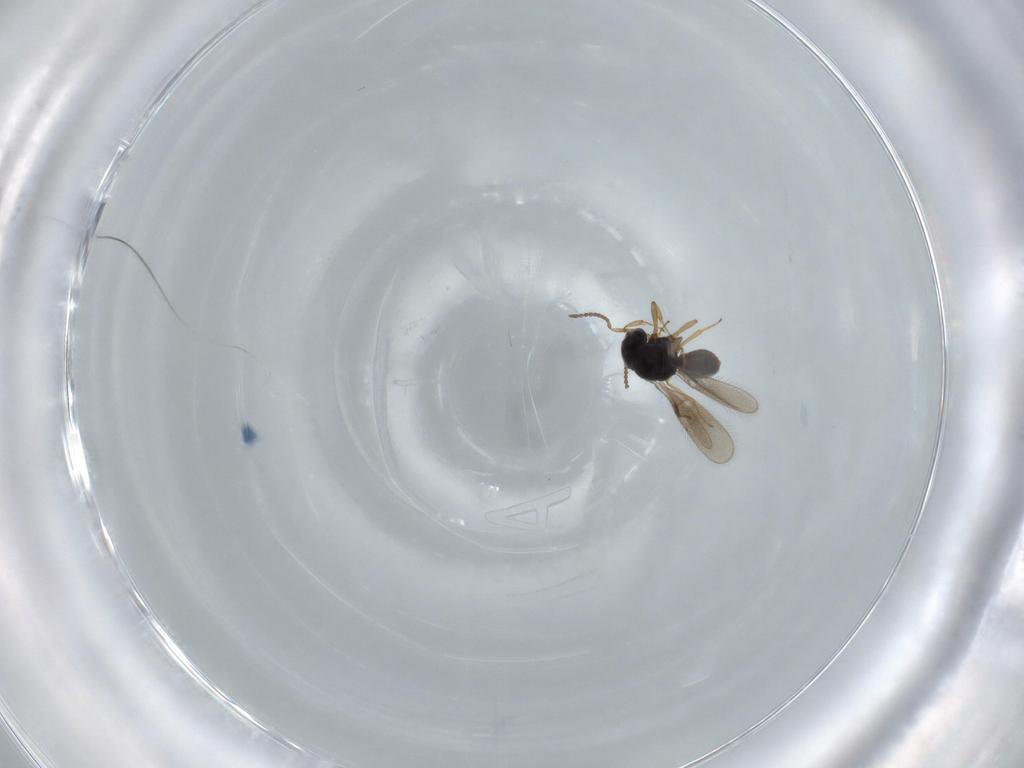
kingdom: Animalia
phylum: Arthropoda
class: Insecta
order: Hymenoptera
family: Scelionidae
